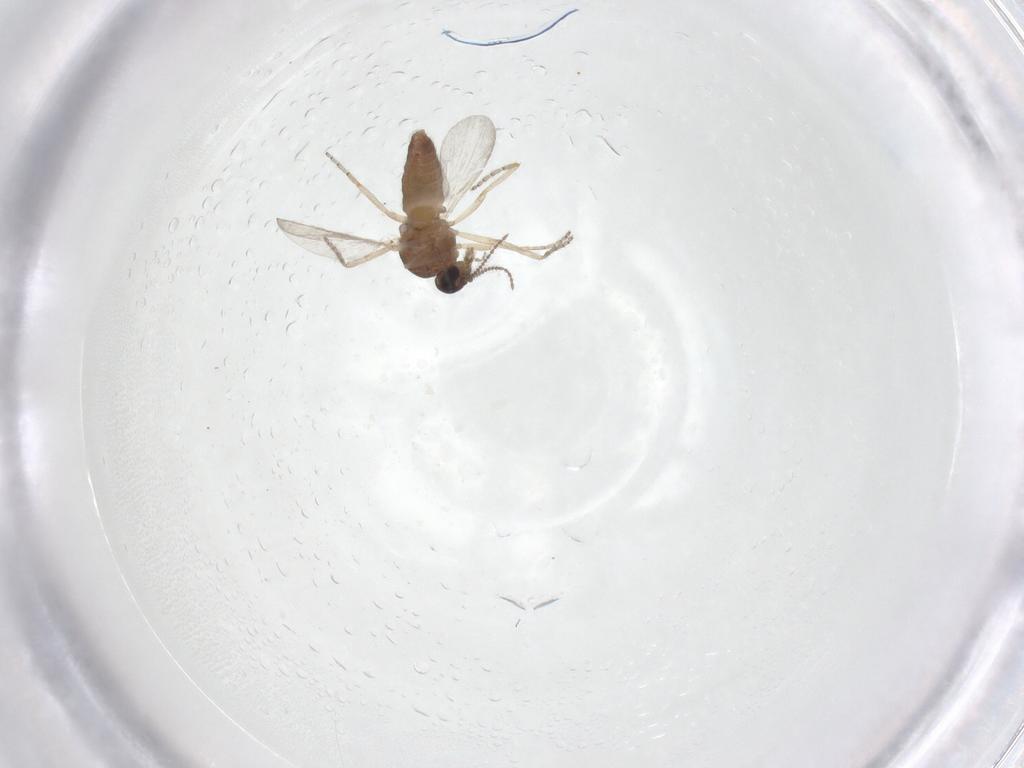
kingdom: Animalia
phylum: Arthropoda
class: Insecta
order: Diptera
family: Ceratopogonidae
